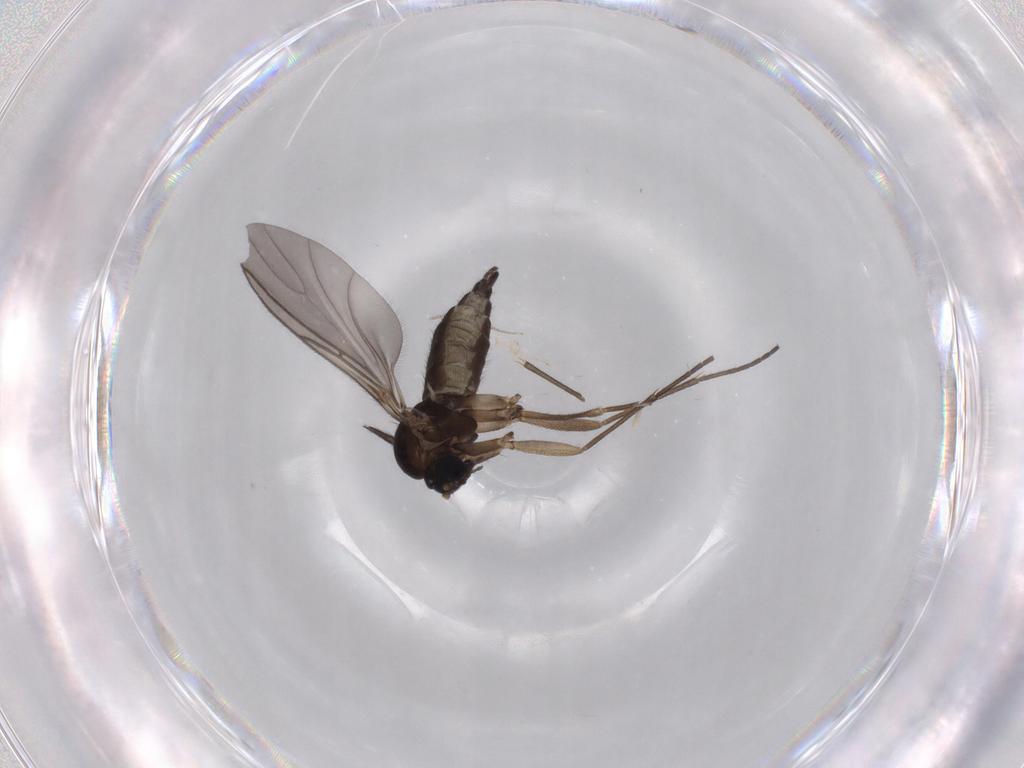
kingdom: Animalia
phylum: Arthropoda
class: Insecta
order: Diptera
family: Sciaridae
